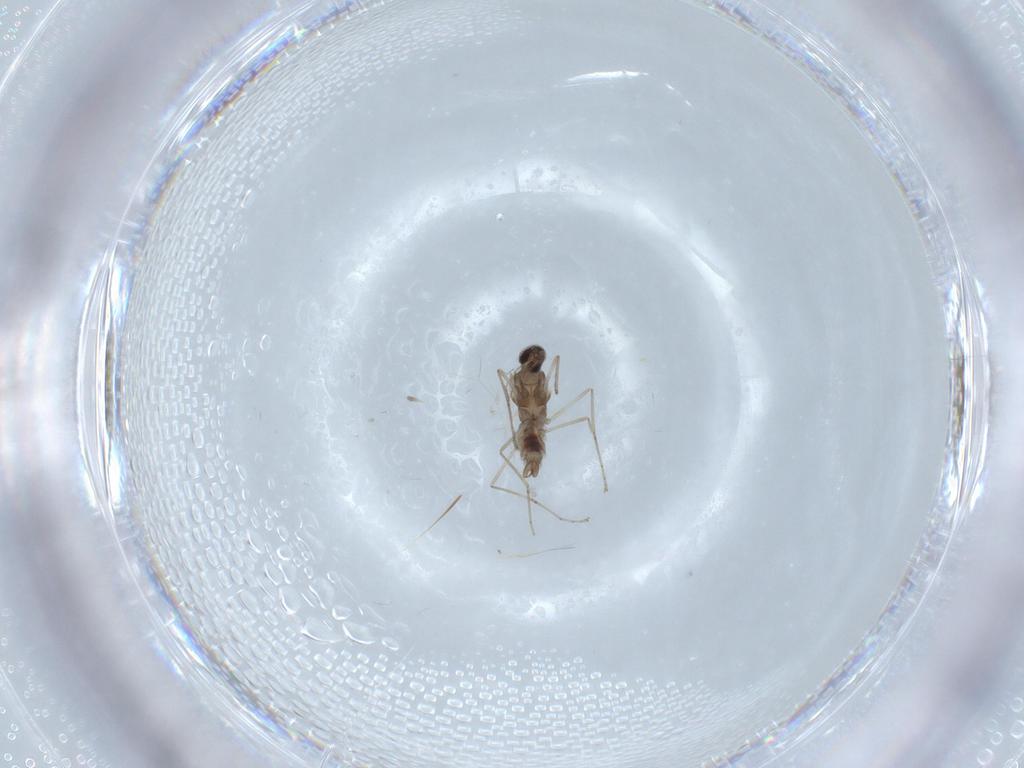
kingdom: Animalia
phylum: Arthropoda
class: Insecta
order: Diptera
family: Cecidomyiidae
